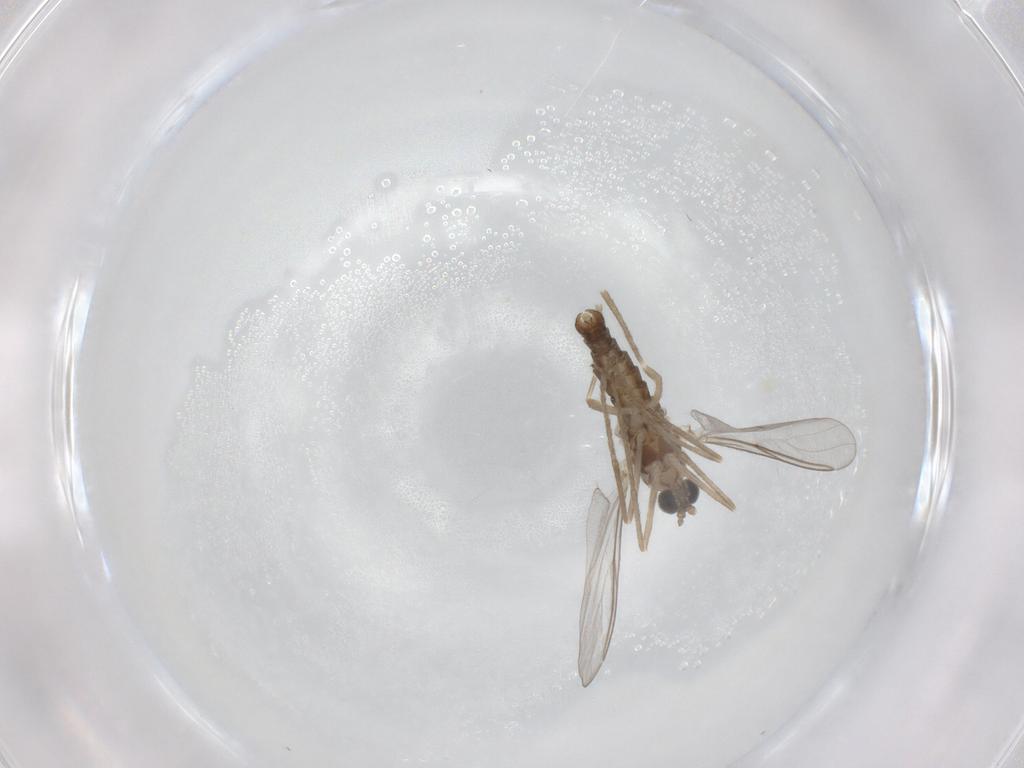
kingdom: Animalia
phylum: Arthropoda
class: Insecta
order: Diptera
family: Cecidomyiidae
